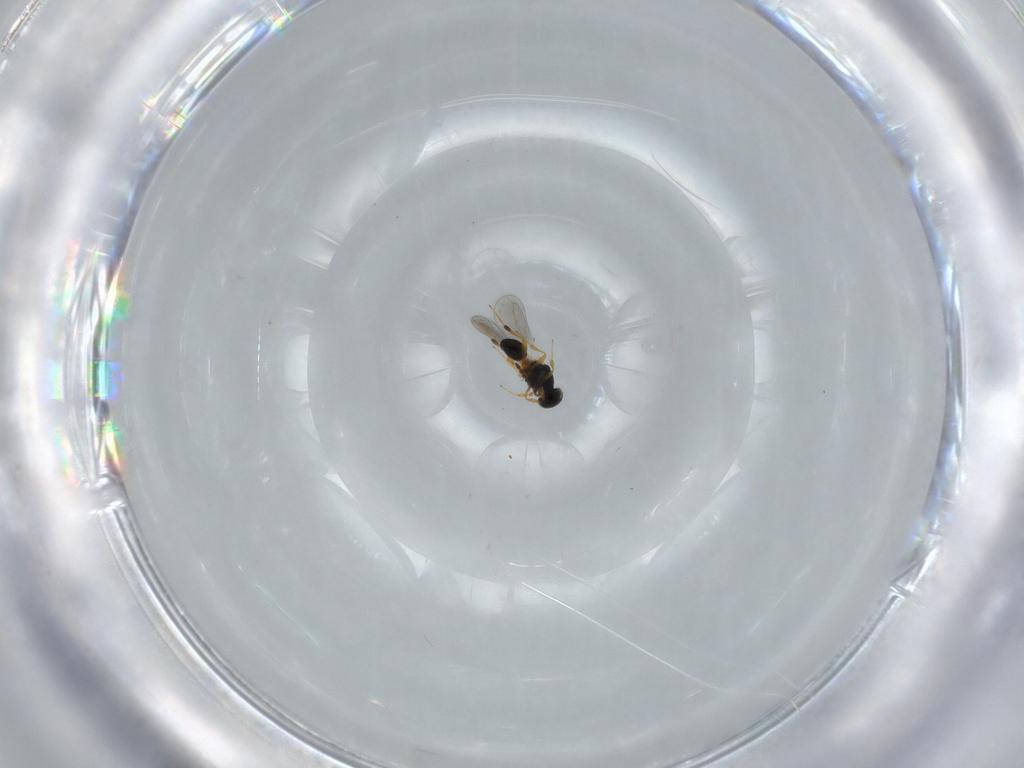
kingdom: Animalia
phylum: Arthropoda
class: Insecta
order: Hymenoptera
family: Platygastridae
